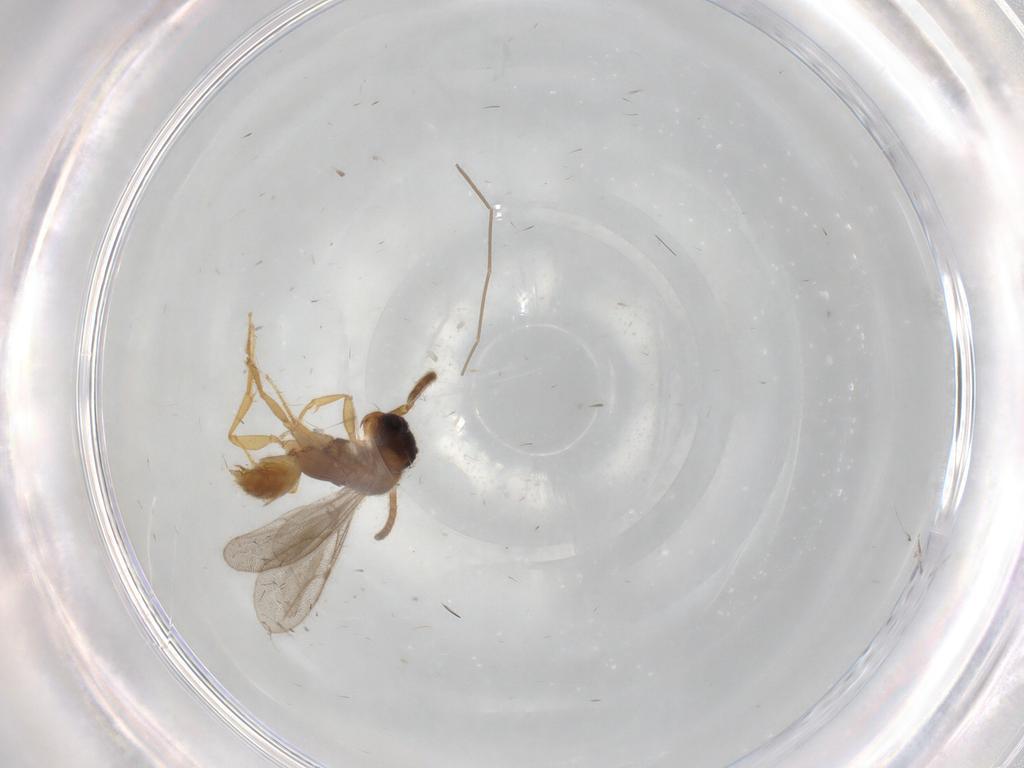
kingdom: Animalia
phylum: Arthropoda
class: Insecta
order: Hymenoptera
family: Bethylidae
